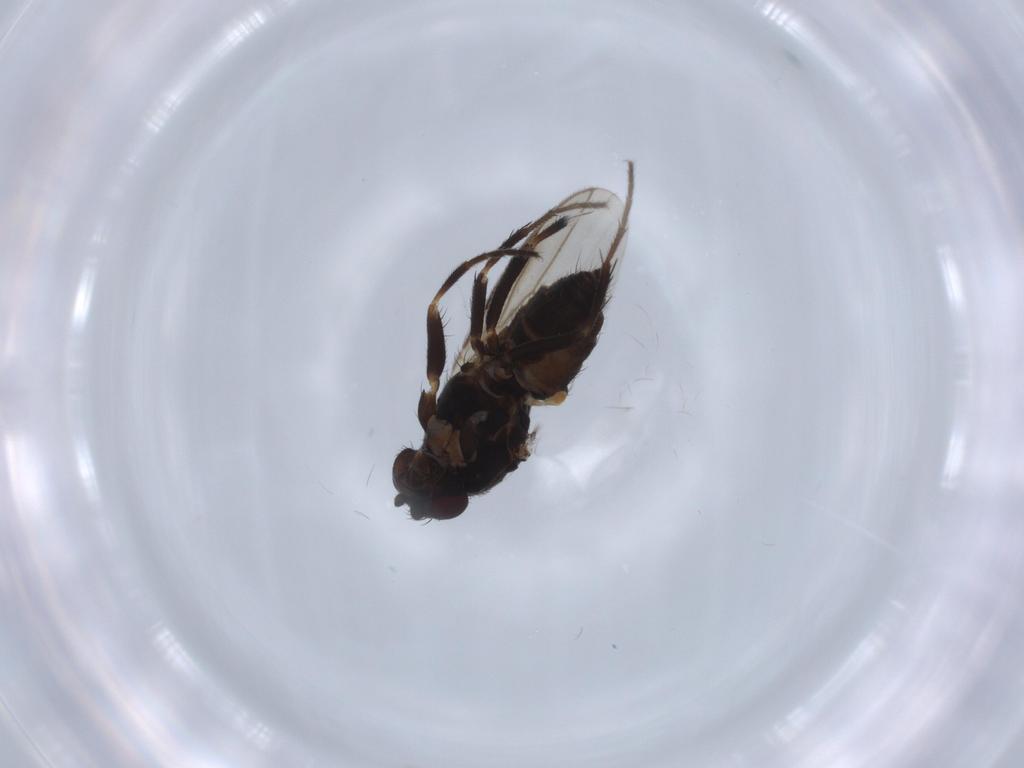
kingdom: Animalia
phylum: Arthropoda
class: Insecta
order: Diptera
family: Sphaeroceridae
